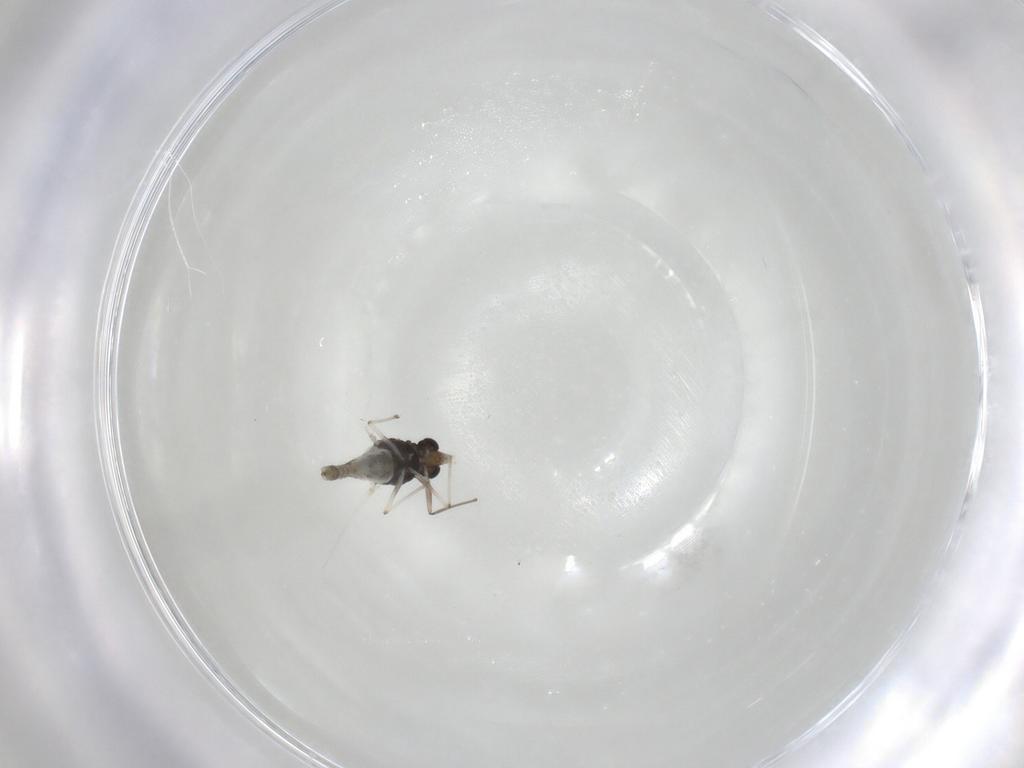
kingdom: Animalia
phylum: Arthropoda
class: Insecta
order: Diptera
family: Chironomidae
